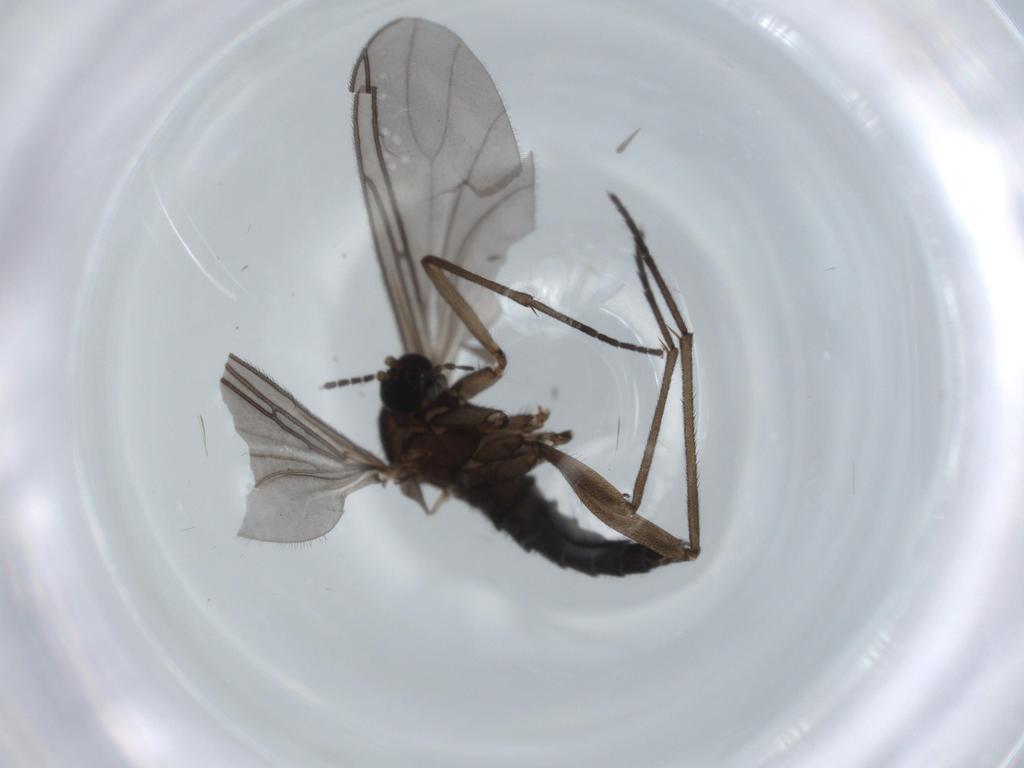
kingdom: Animalia
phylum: Arthropoda
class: Insecta
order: Diptera
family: Sciaridae
